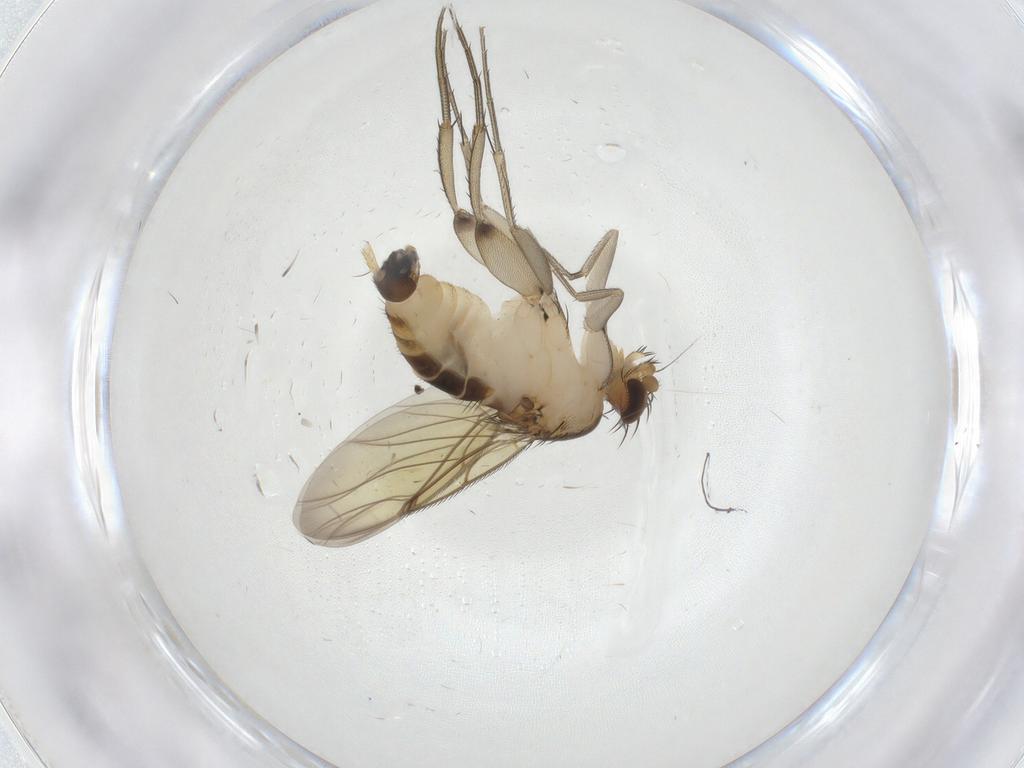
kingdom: Animalia
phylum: Arthropoda
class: Insecta
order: Diptera
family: Phoridae
